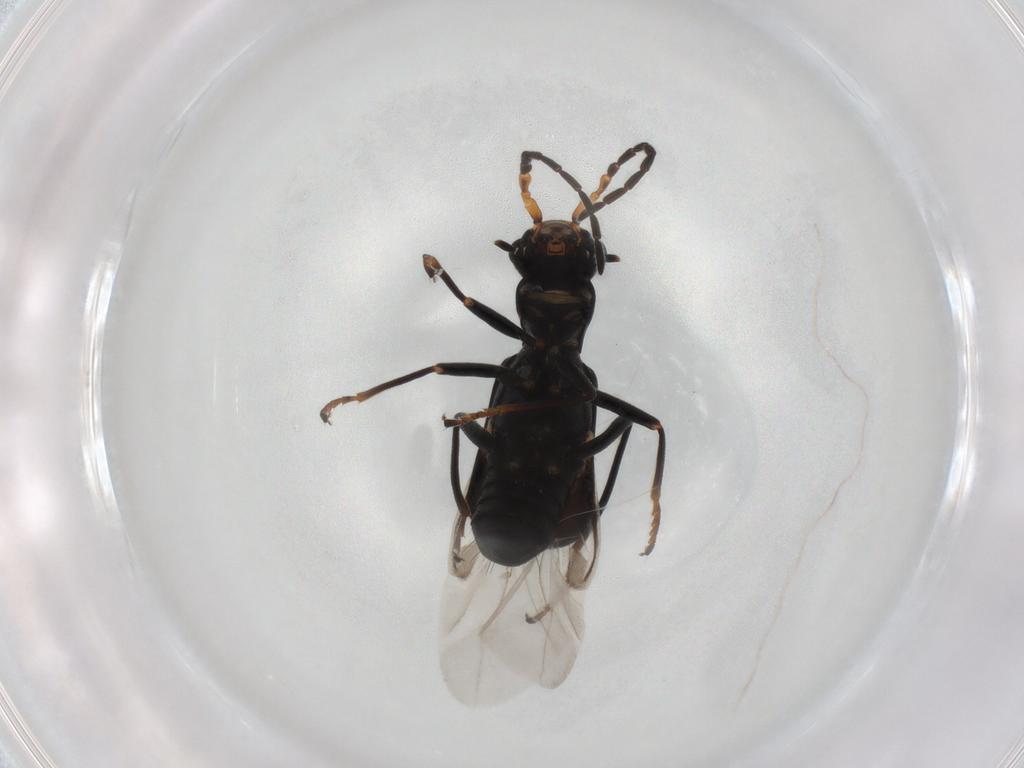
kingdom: Animalia
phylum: Arthropoda
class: Insecta
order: Coleoptera
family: Melyridae
